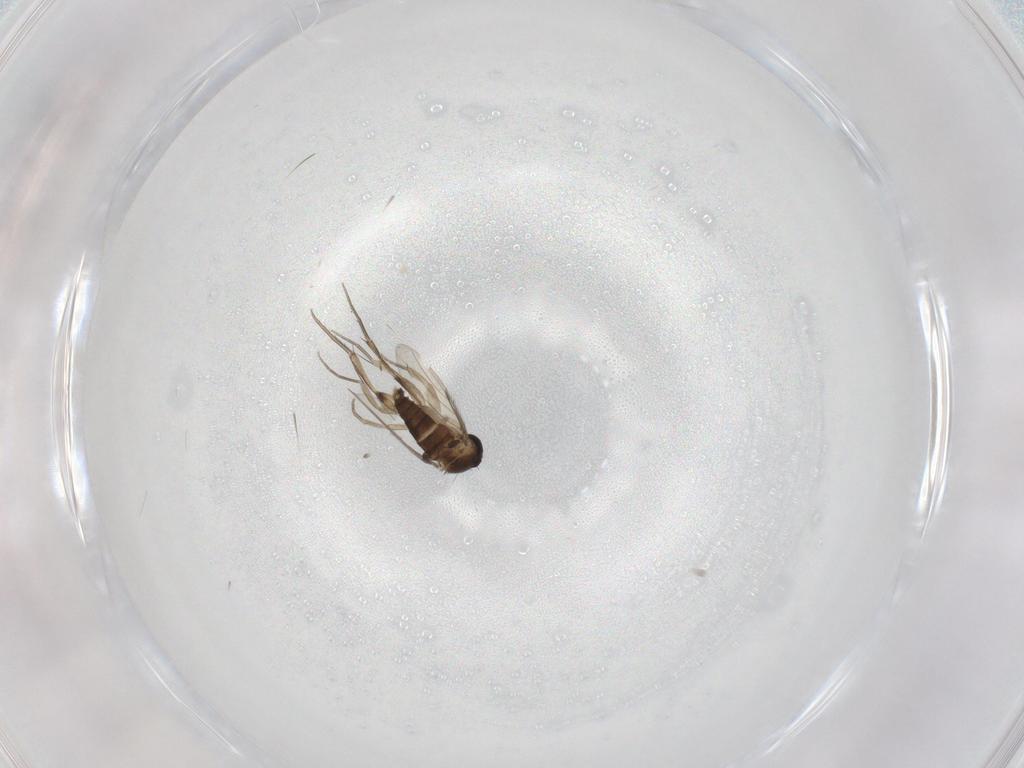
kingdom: Animalia
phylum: Arthropoda
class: Insecta
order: Diptera
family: Phoridae
